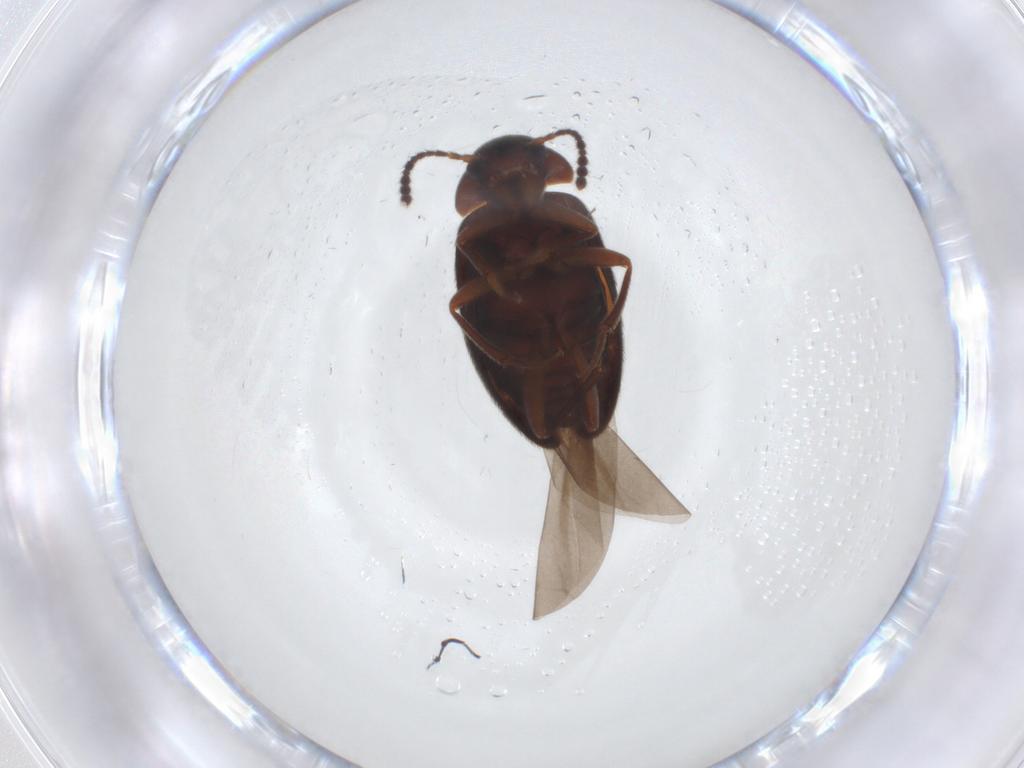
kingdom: Animalia
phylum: Arthropoda
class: Insecta
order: Coleoptera
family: Leiodidae
